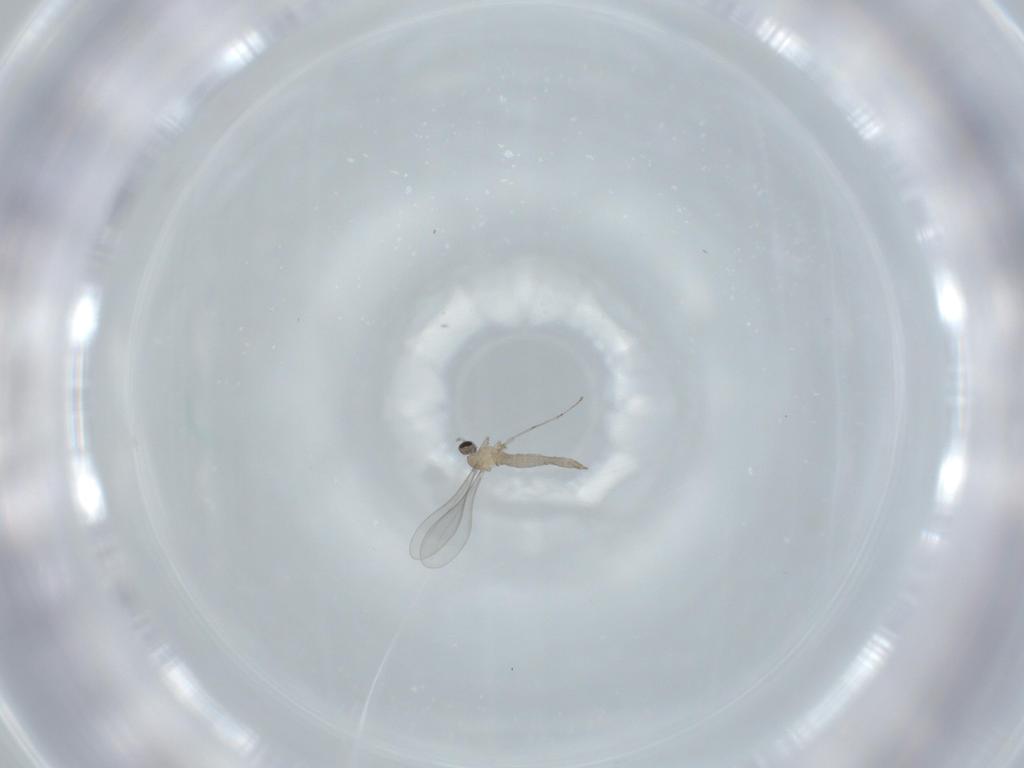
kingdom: Animalia
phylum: Arthropoda
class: Insecta
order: Diptera
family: Cecidomyiidae
